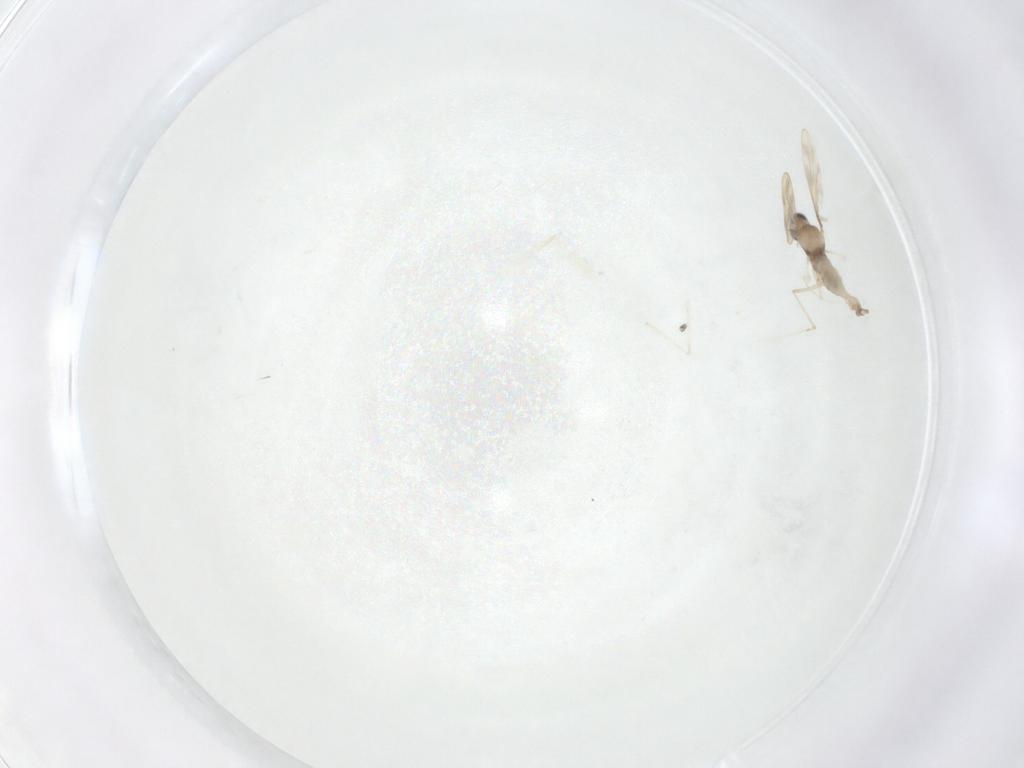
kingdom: Animalia
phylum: Arthropoda
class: Insecta
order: Diptera
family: Cecidomyiidae
